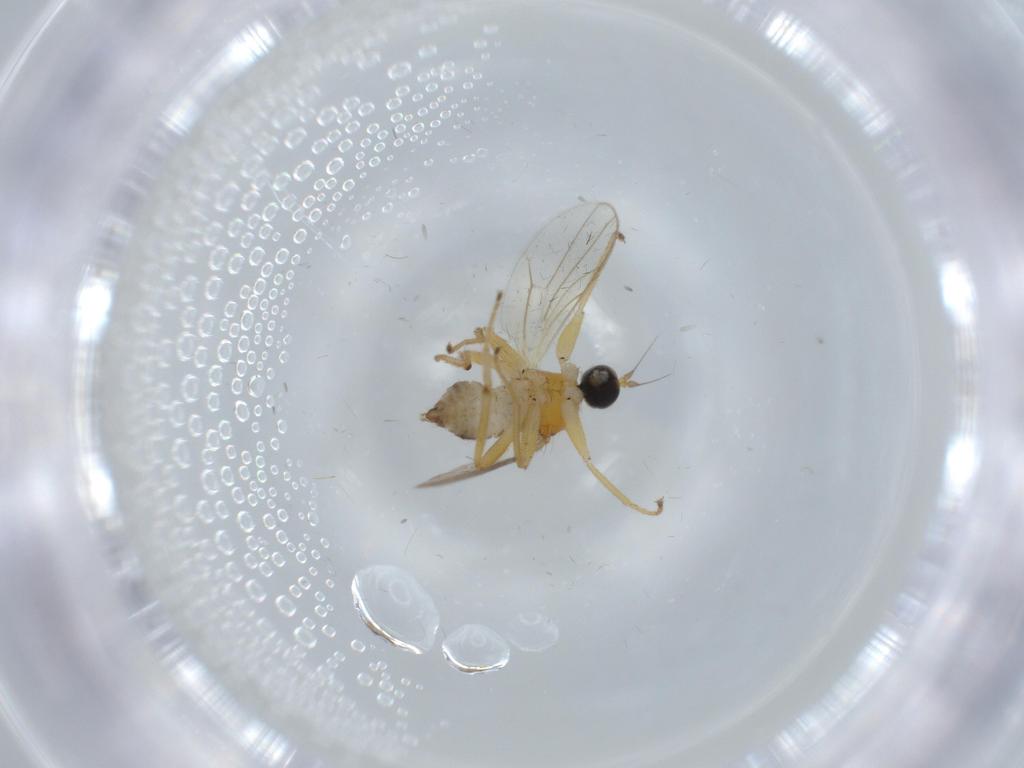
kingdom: Animalia
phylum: Arthropoda
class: Insecta
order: Diptera
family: Hybotidae
